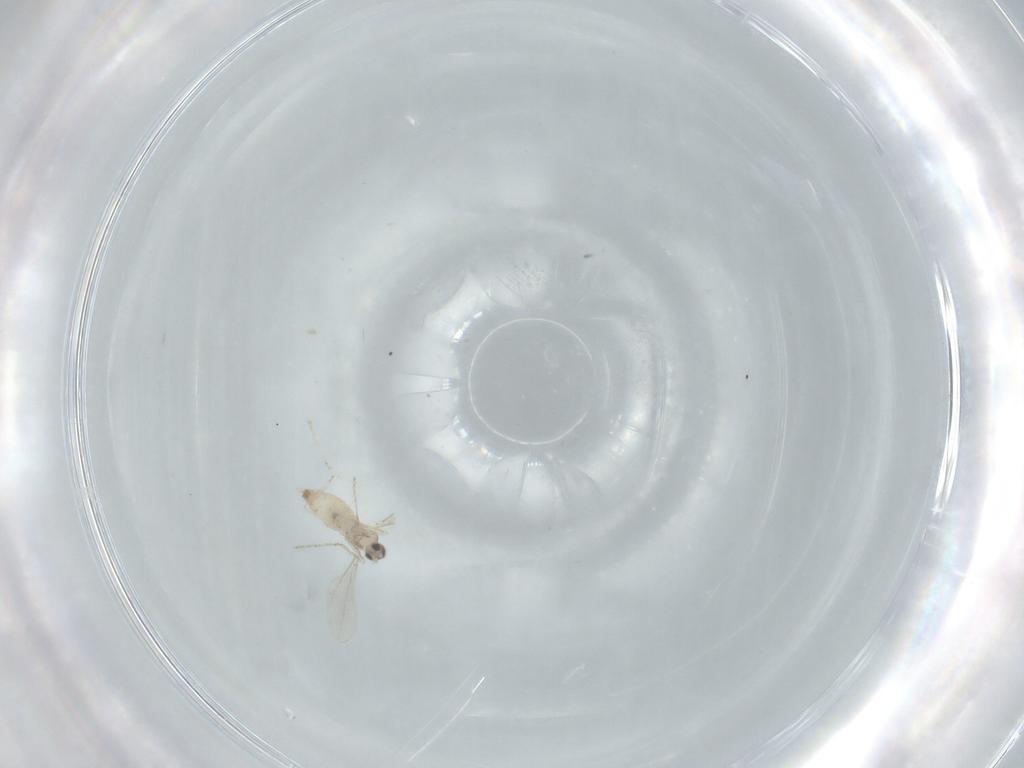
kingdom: Animalia
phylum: Arthropoda
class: Insecta
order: Diptera
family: Cecidomyiidae
